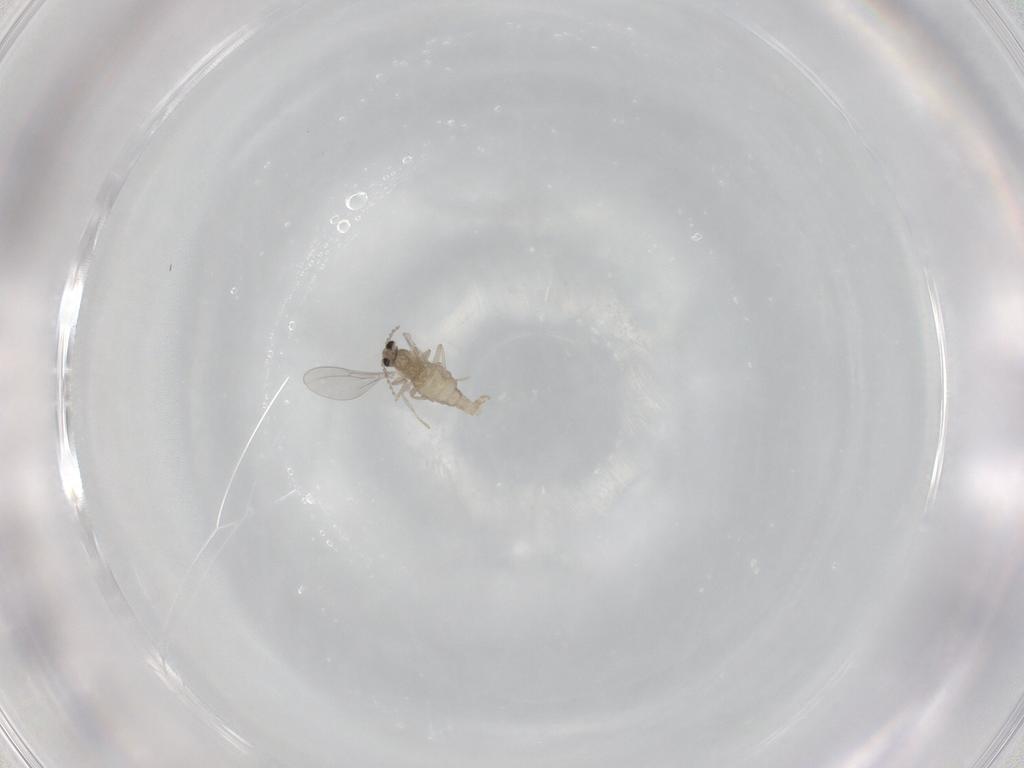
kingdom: Animalia
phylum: Arthropoda
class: Insecta
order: Diptera
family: Cecidomyiidae
